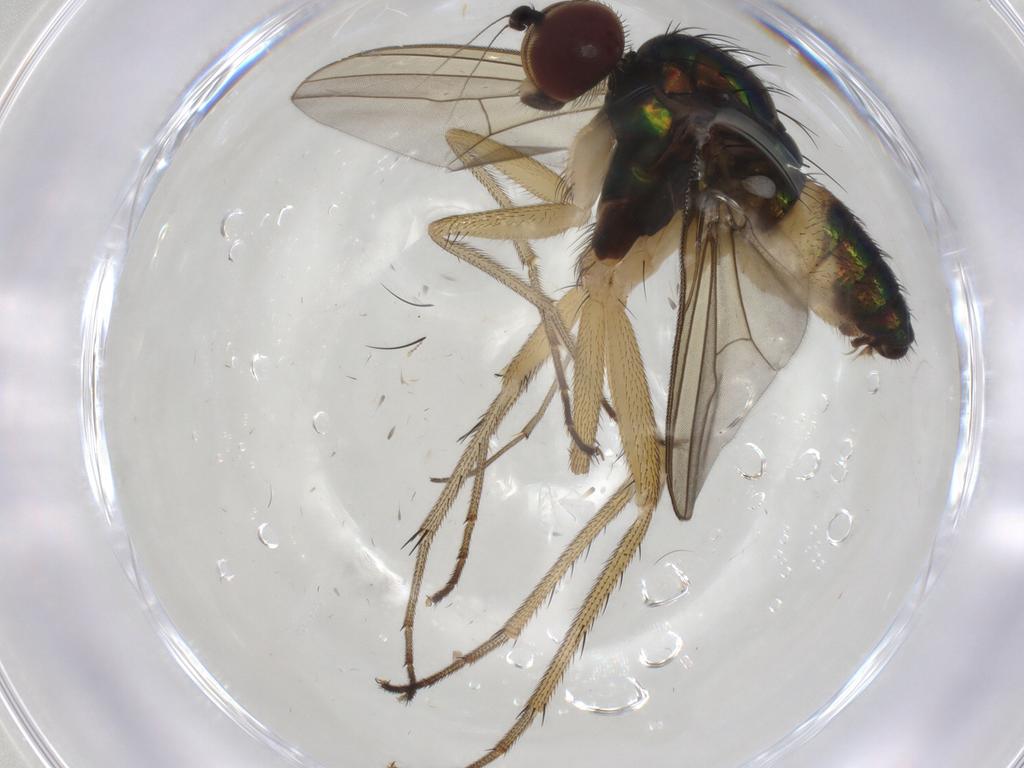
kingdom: Animalia
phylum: Arthropoda
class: Insecta
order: Diptera
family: Dolichopodidae
